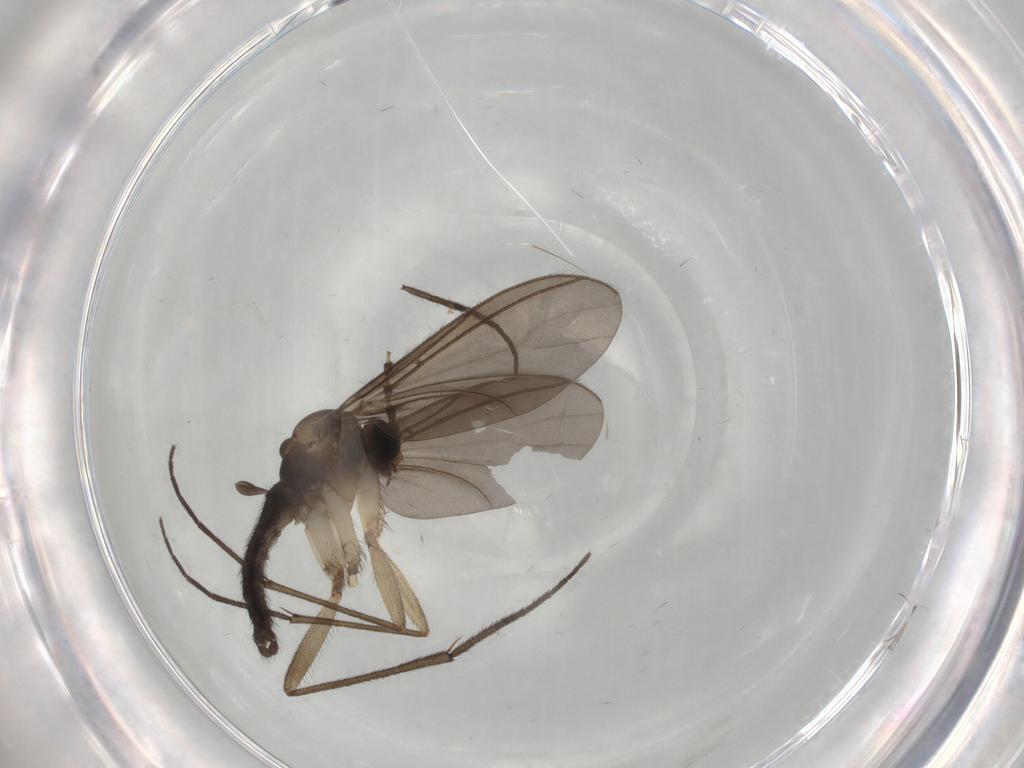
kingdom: Animalia
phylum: Arthropoda
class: Insecta
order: Diptera
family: Cecidomyiidae
